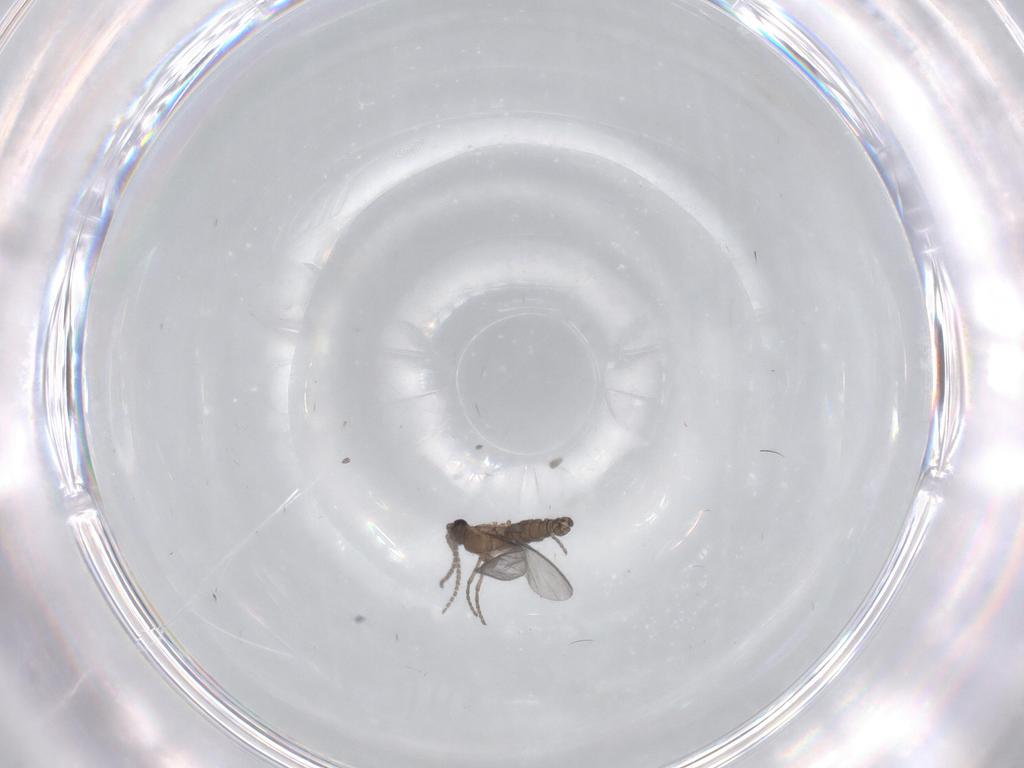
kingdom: Animalia
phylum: Arthropoda
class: Insecta
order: Diptera
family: Sciaridae
